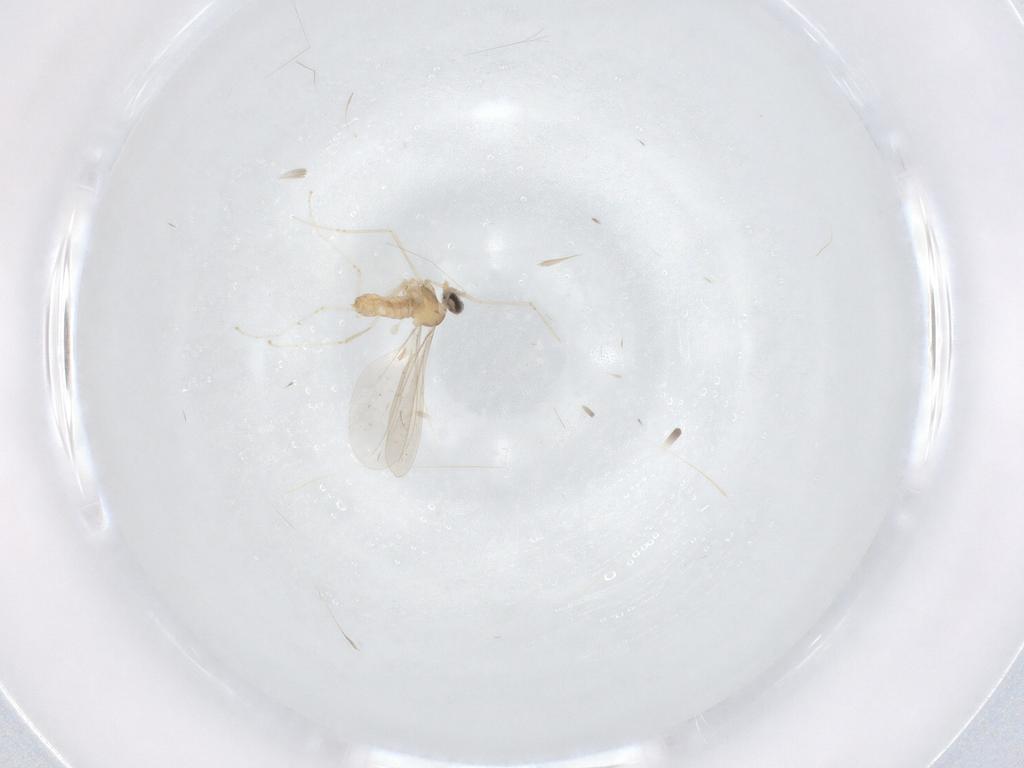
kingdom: Animalia
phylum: Arthropoda
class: Insecta
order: Diptera
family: Cecidomyiidae
